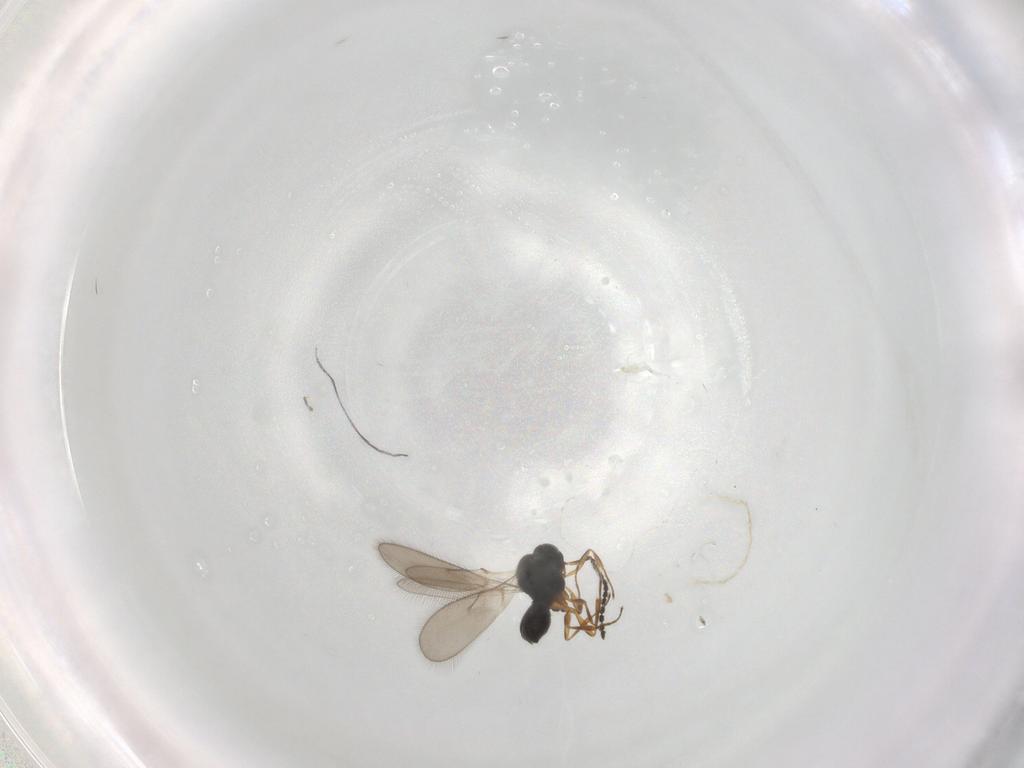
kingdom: Animalia
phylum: Arthropoda
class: Insecta
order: Hymenoptera
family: Scelionidae
